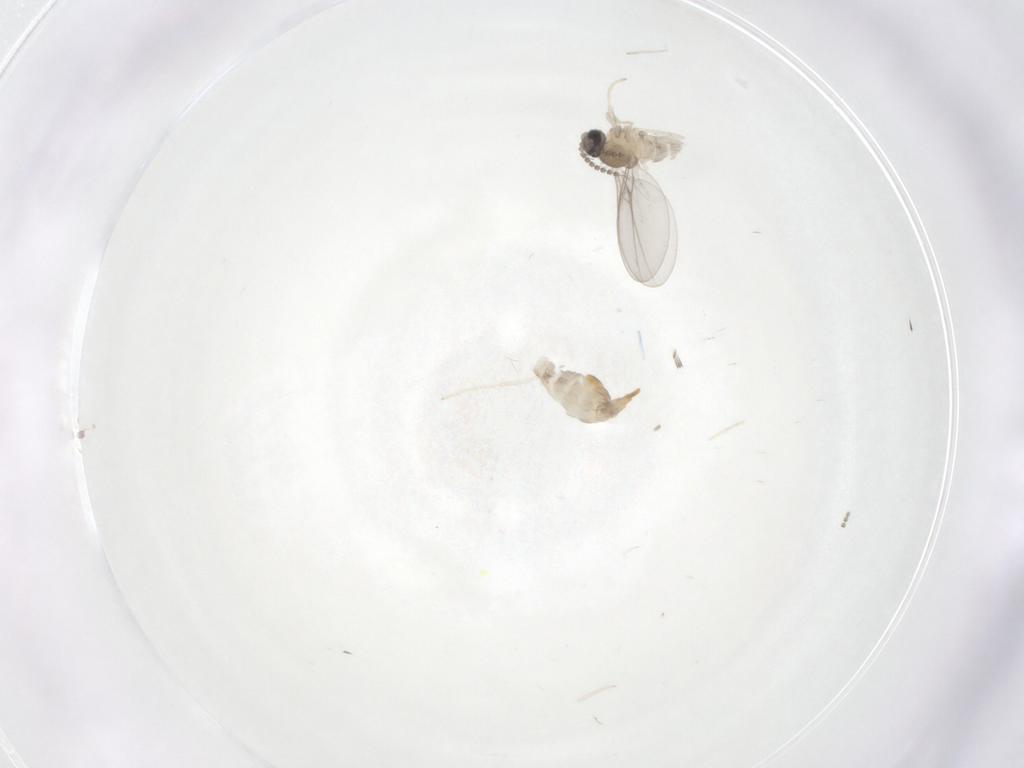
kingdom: Animalia
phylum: Arthropoda
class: Insecta
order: Diptera
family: Cecidomyiidae
